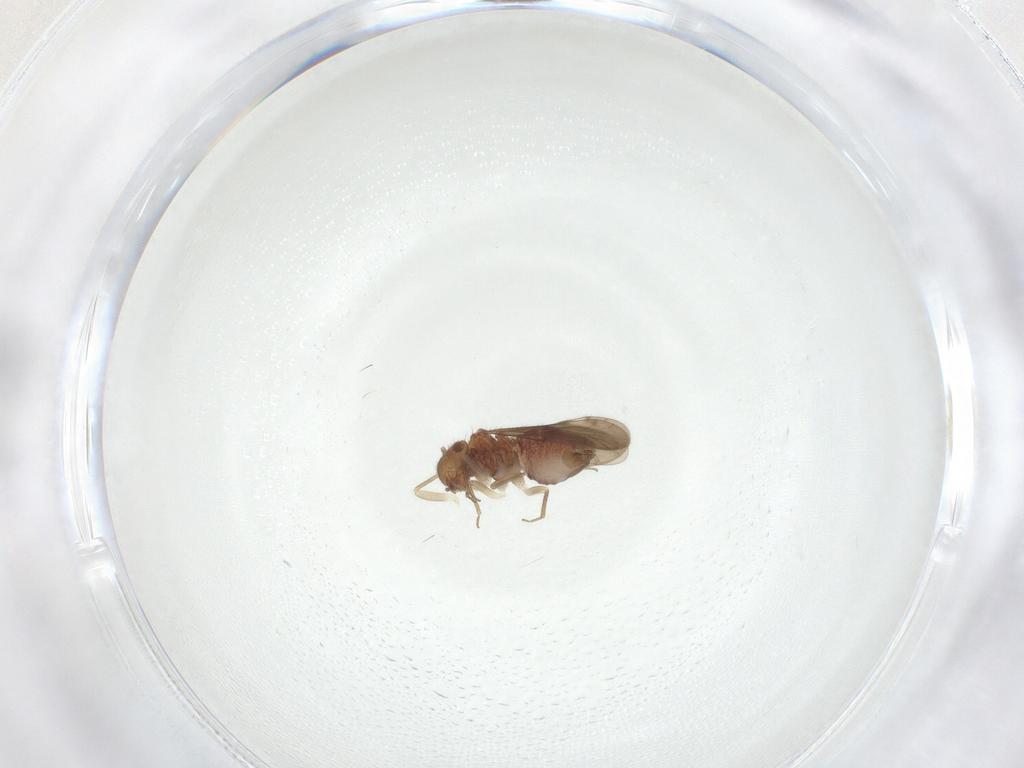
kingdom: Animalia
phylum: Arthropoda
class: Insecta
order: Psocodea
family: Ectopsocidae
